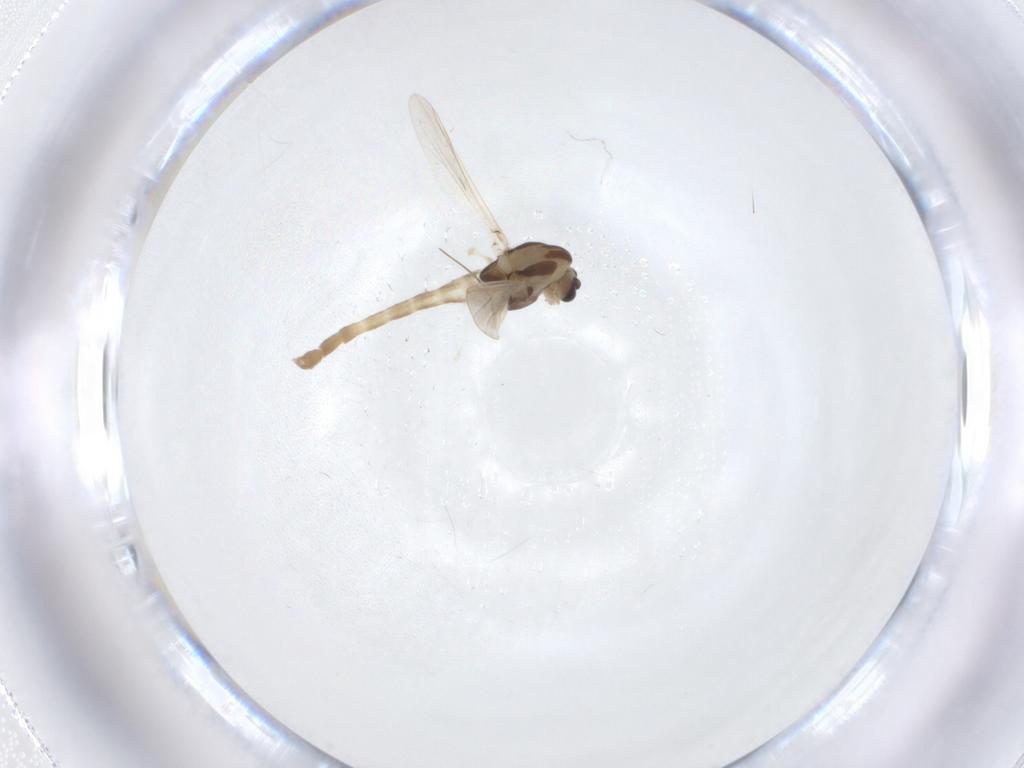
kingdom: Animalia
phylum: Arthropoda
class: Insecta
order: Diptera
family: Chironomidae
